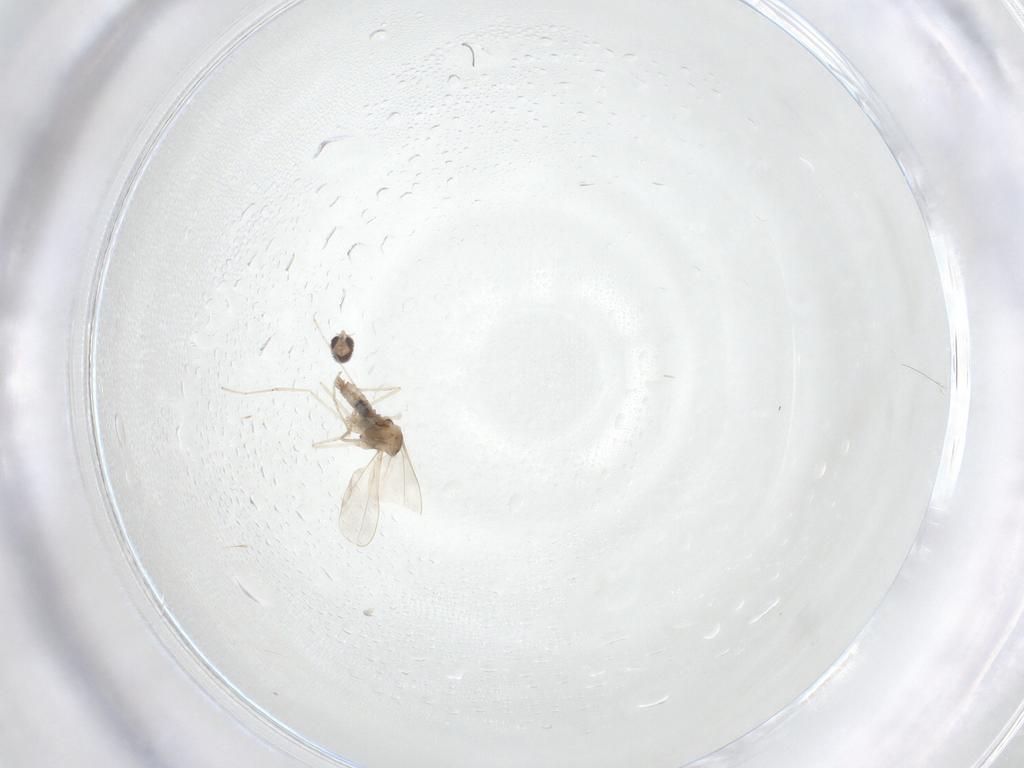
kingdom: Animalia
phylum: Arthropoda
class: Insecta
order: Diptera
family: Cecidomyiidae
